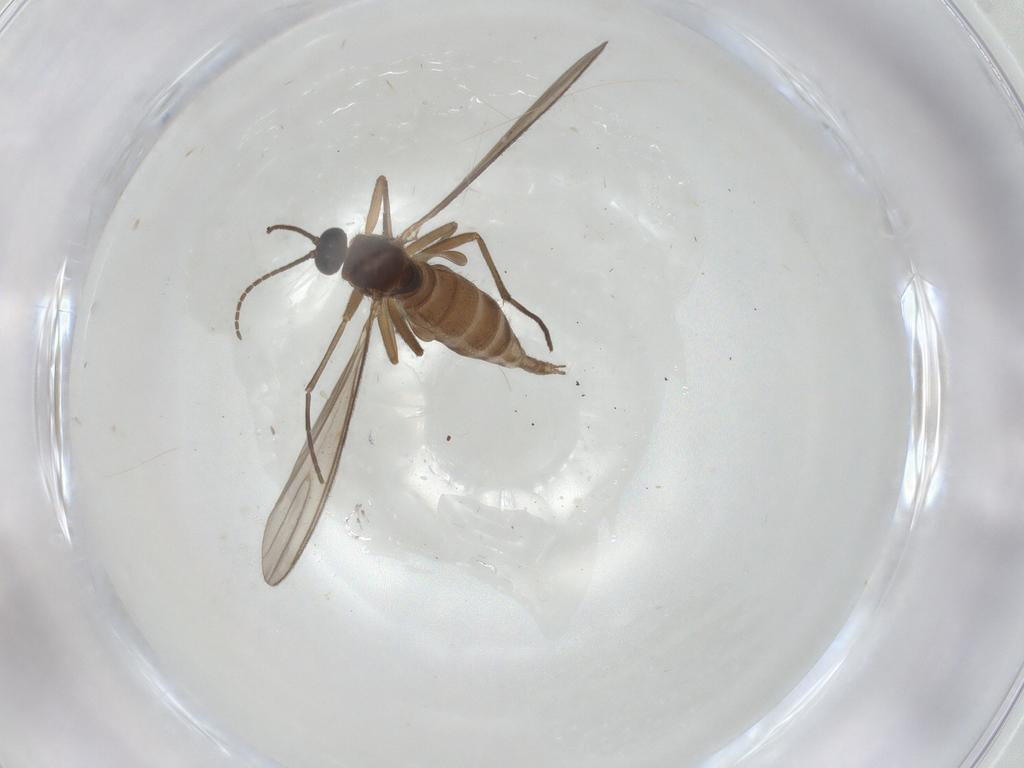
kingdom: Animalia
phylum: Arthropoda
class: Insecta
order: Diptera
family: Sciaridae
